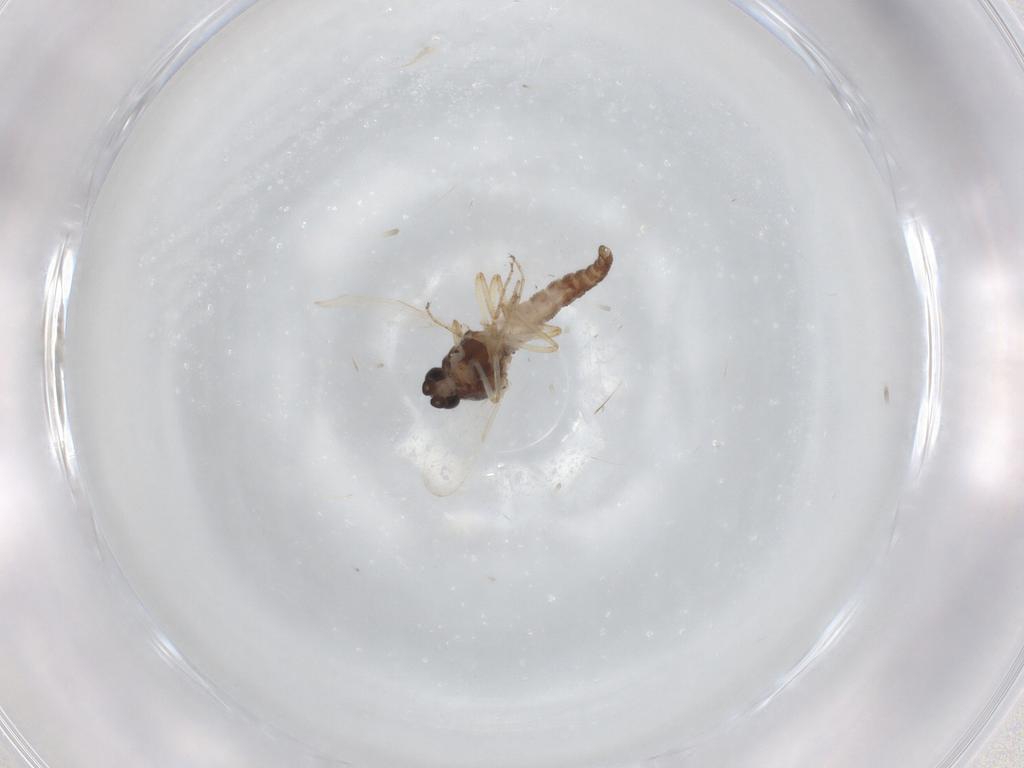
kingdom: Animalia
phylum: Arthropoda
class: Insecta
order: Diptera
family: Ceratopogonidae
